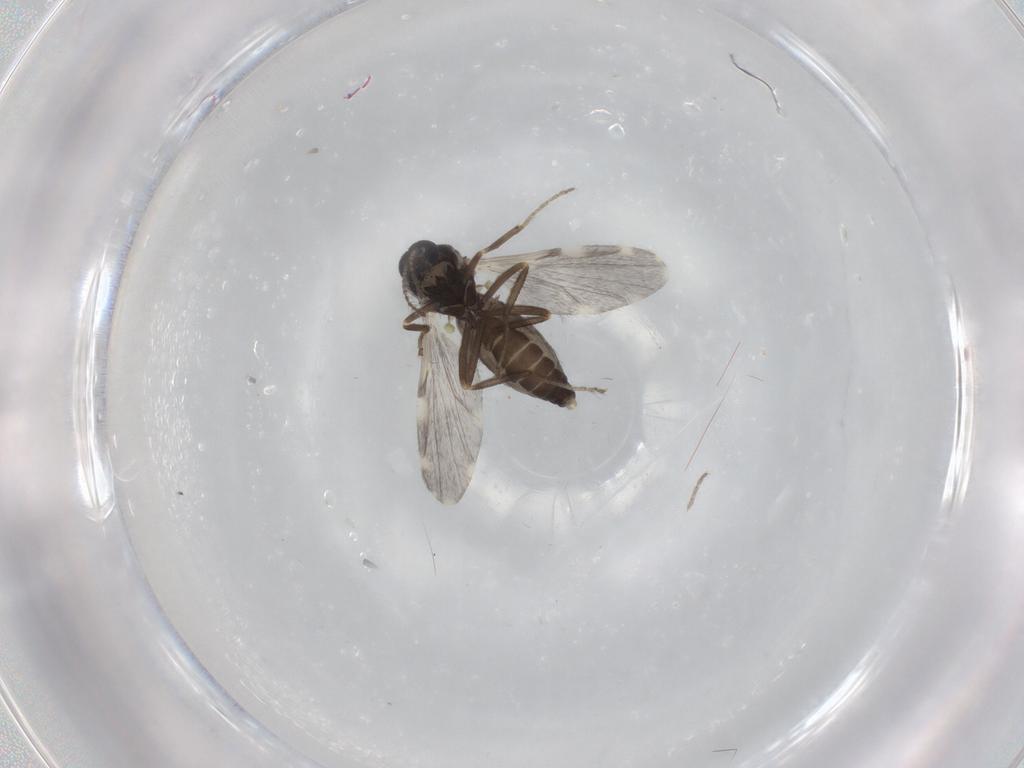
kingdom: Animalia
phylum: Arthropoda
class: Insecta
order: Diptera
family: Ceratopogonidae
